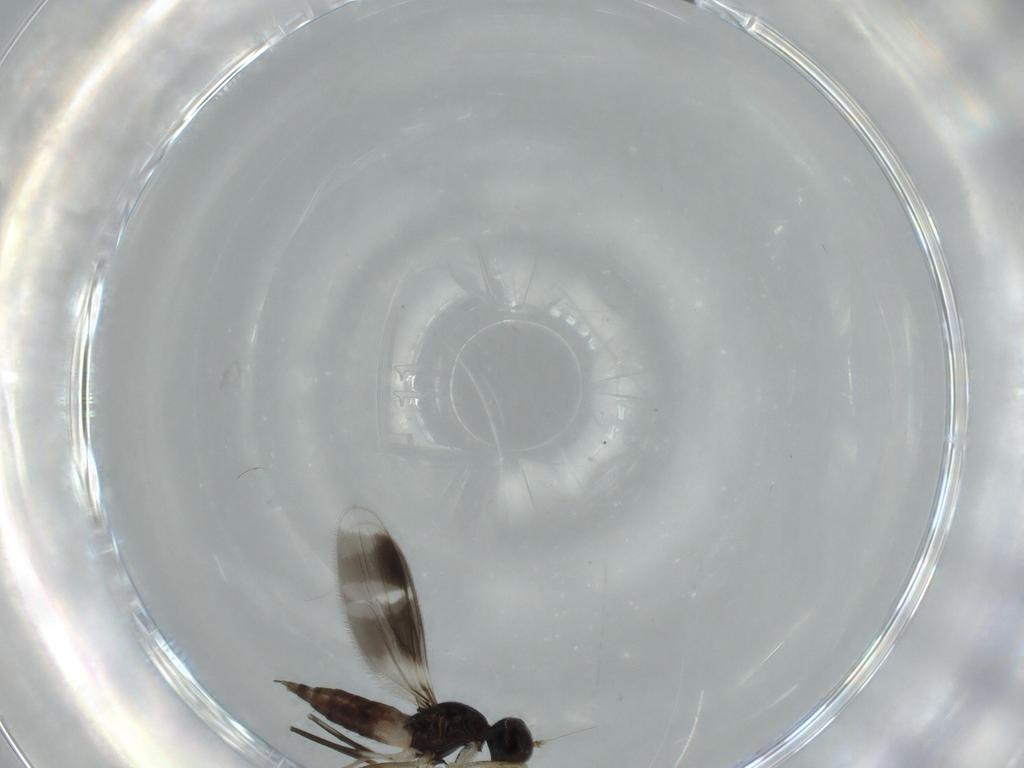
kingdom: Animalia
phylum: Arthropoda
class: Insecta
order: Diptera
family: Hybotidae
